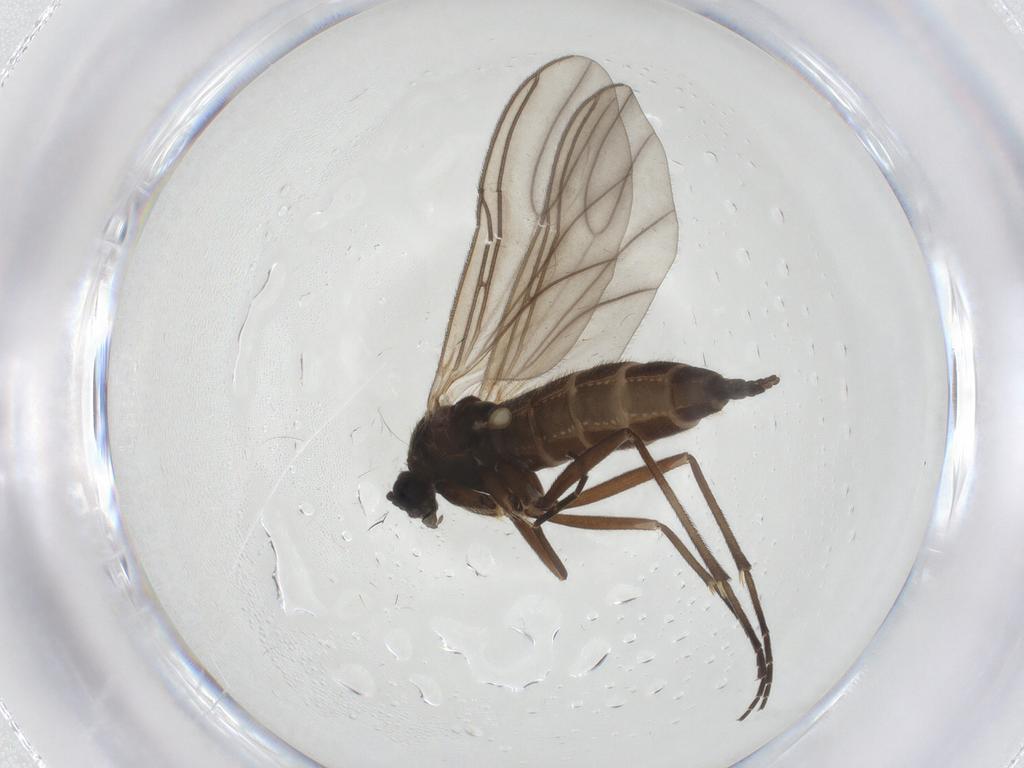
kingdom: Animalia
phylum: Arthropoda
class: Insecta
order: Diptera
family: Sciaridae
